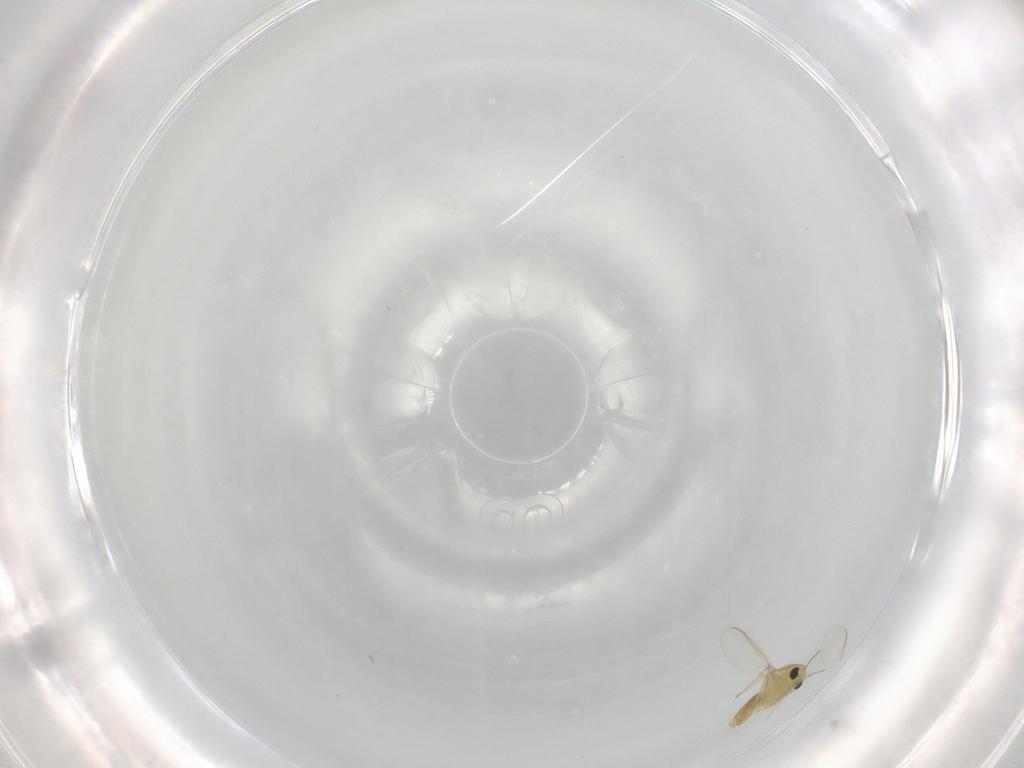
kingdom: Animalia
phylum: Arthropoda
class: Insecta
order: Diptera
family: Chironomidae
